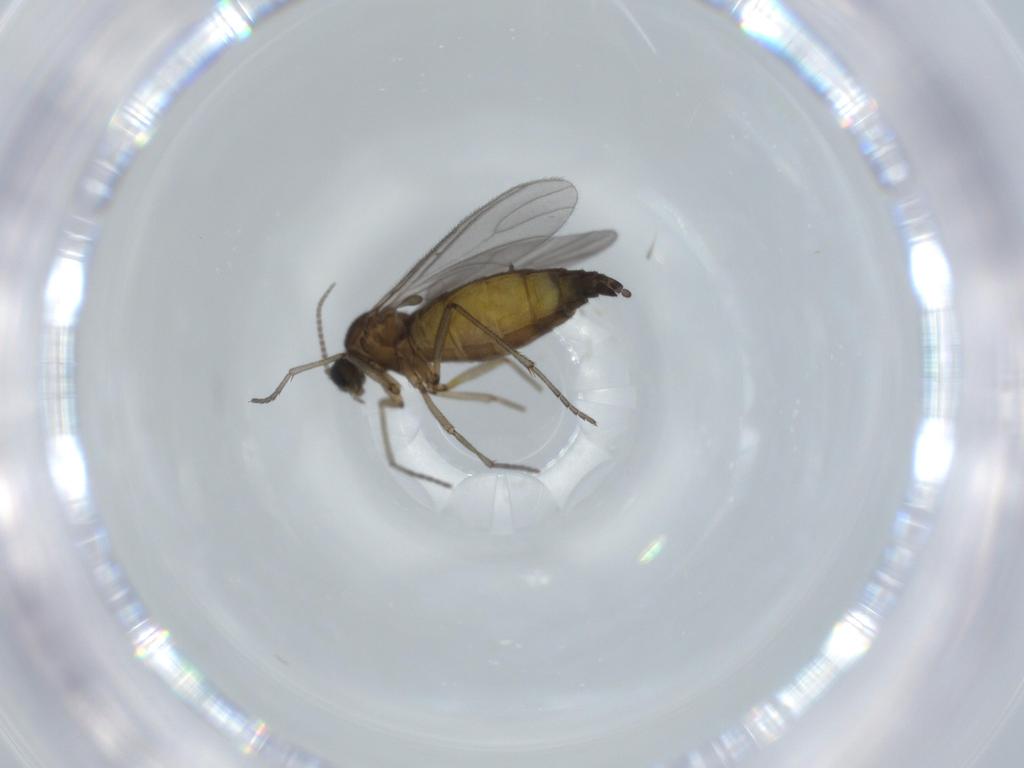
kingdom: Animalia
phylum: Arthropoda
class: Insecta
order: Diptera
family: Sciaridae
